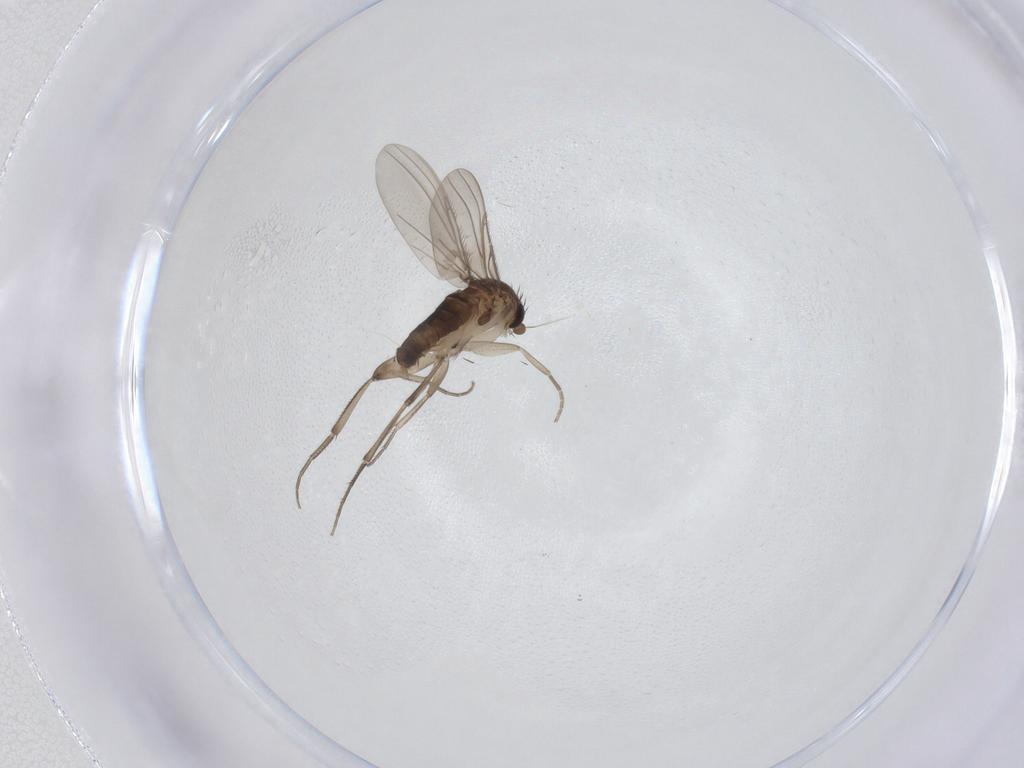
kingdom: Animalia
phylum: Arthropoda
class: Insecta
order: Diptera
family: Phoridae
